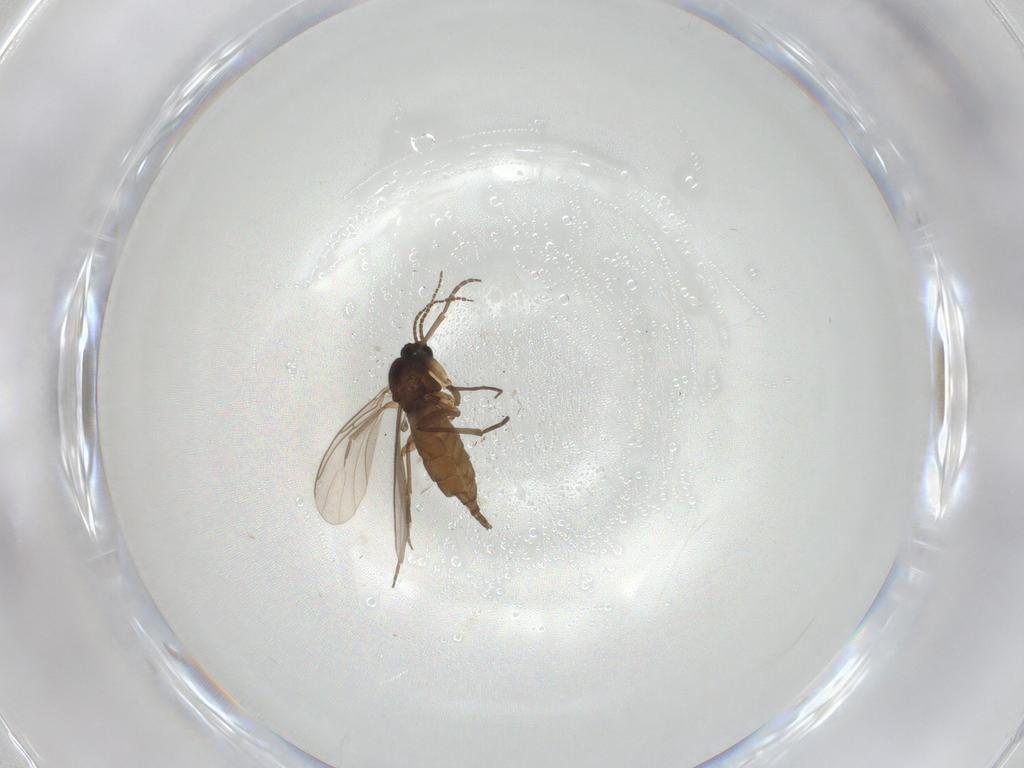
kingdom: Animalia
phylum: Arthropoda
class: Insecta
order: Diptera
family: Sciaridae
